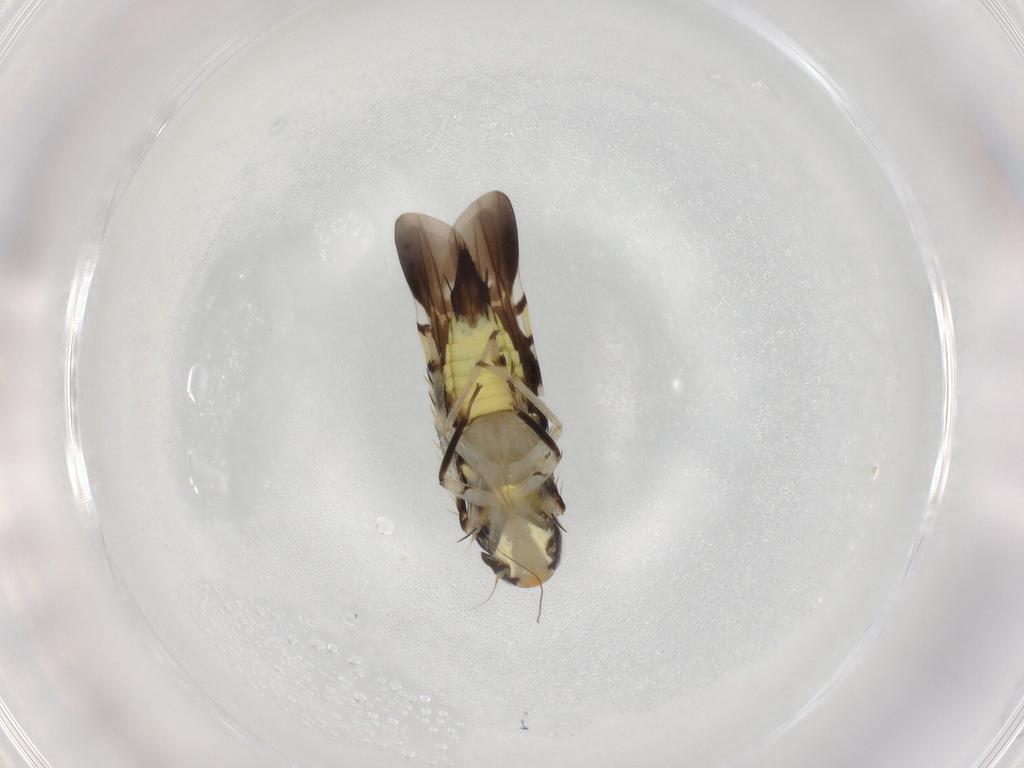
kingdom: Animalia
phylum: Arthropoda
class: Insecta
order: Hemiptera
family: Cicadellidae
